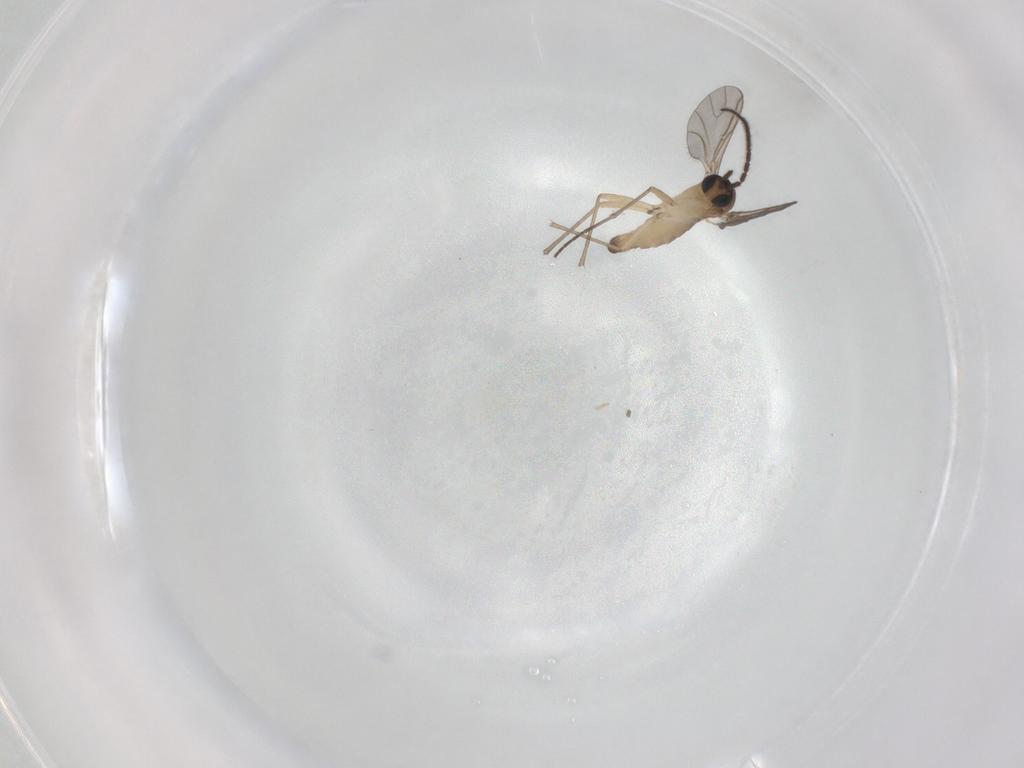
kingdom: Animalia
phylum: Arthropoda
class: Insecta
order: Diptera
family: Sciaridae
